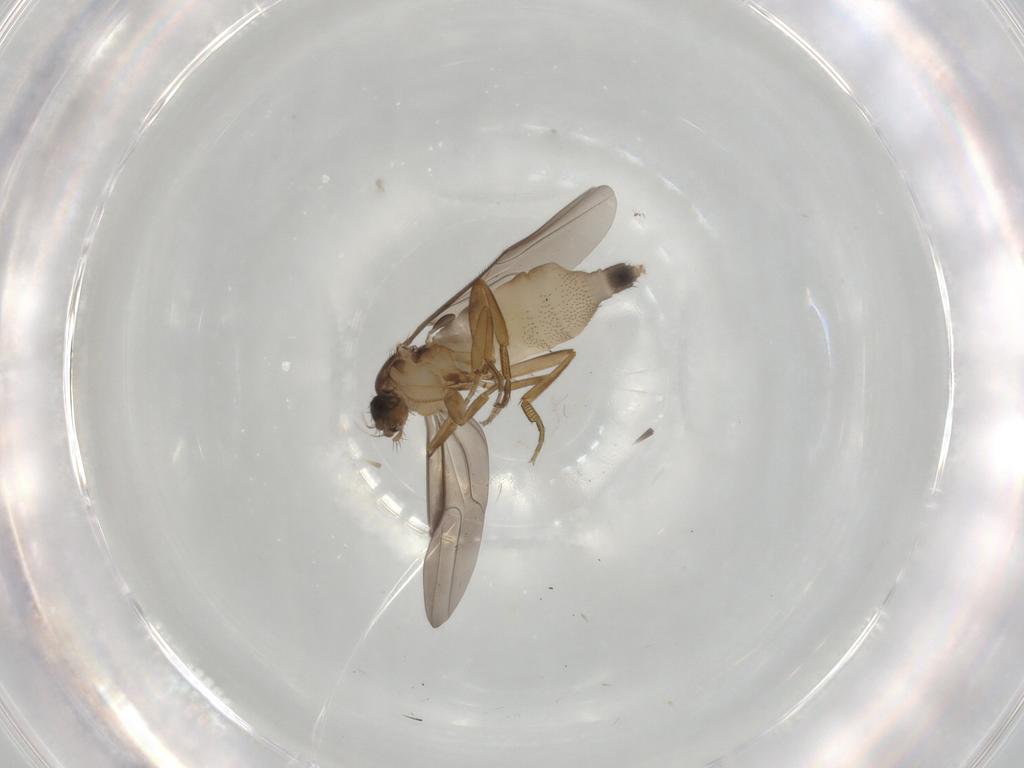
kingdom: Animalia
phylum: Arthropoda
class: Insecta
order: Diptera
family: Phoridae
